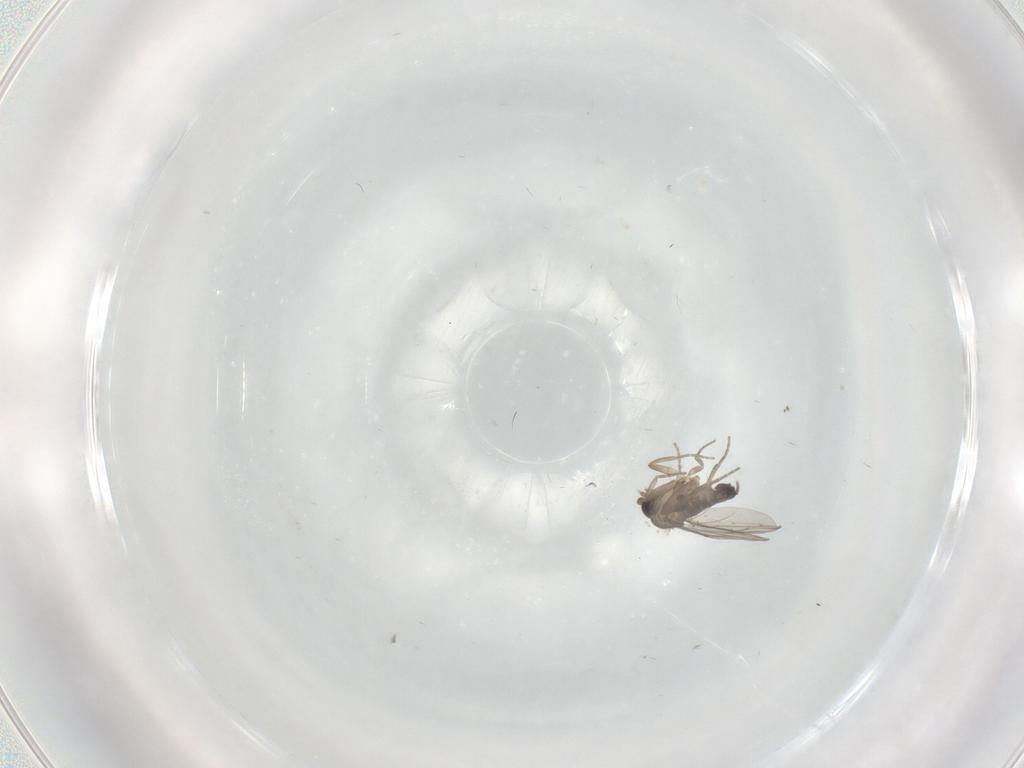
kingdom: Animalia
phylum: Arthropoda
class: Insecta
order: Diptera
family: Phoridae
